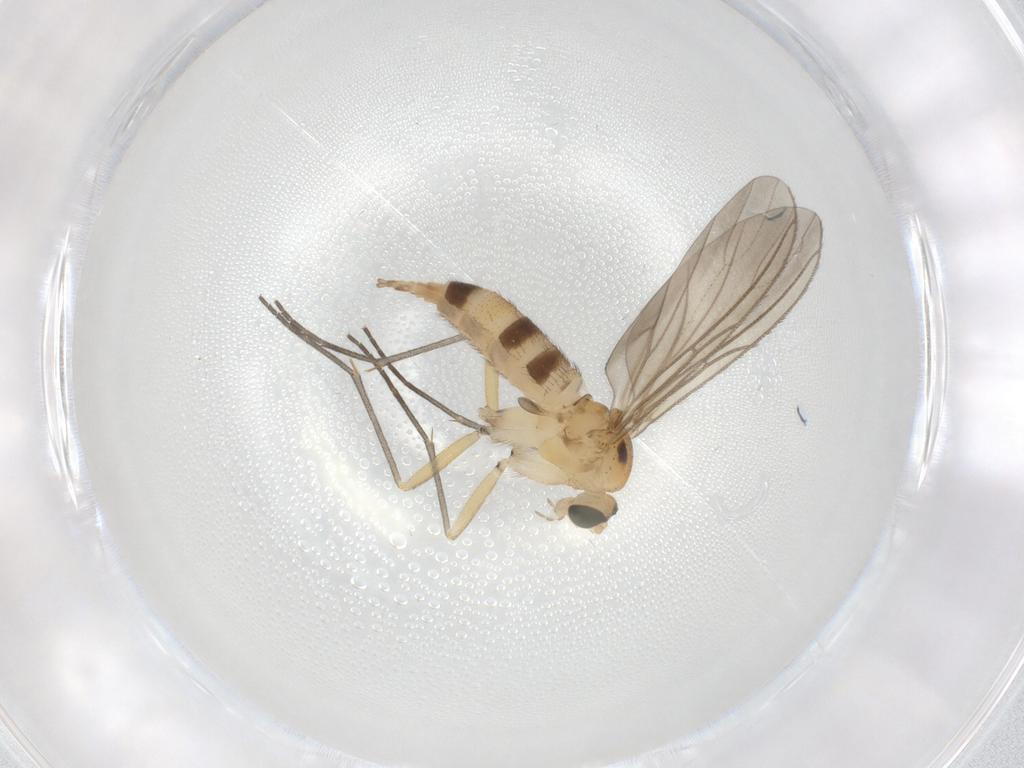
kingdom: Animalia
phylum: Arthropoda
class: Insecta
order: Diptera
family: Sciaridae
